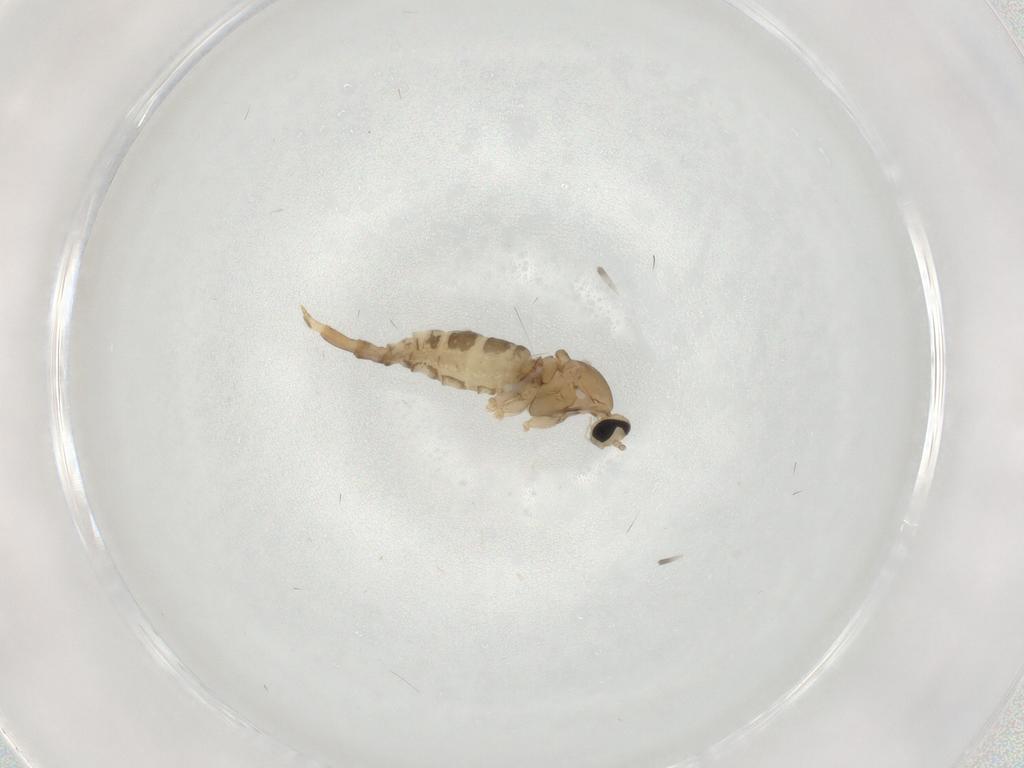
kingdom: Animalia
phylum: Arthropoda
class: Insecta
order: Diptera
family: Cecidomyiidae
